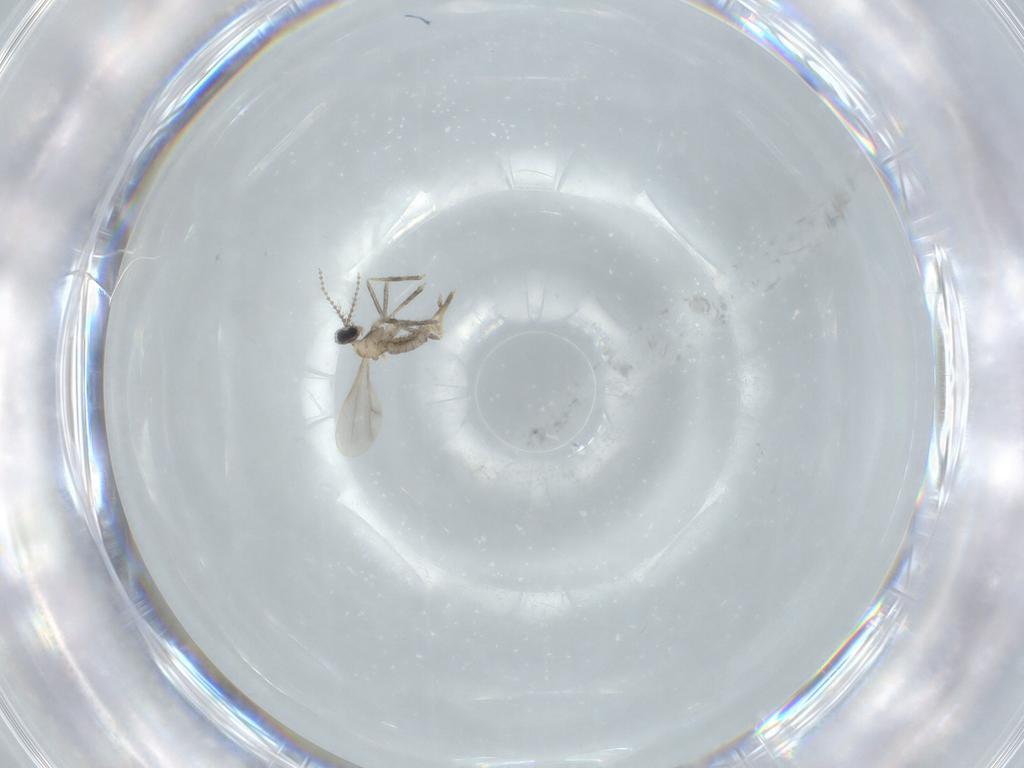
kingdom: Animalia
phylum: Arthropoda
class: Insecta
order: Diptera
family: Cecidomyiidae
